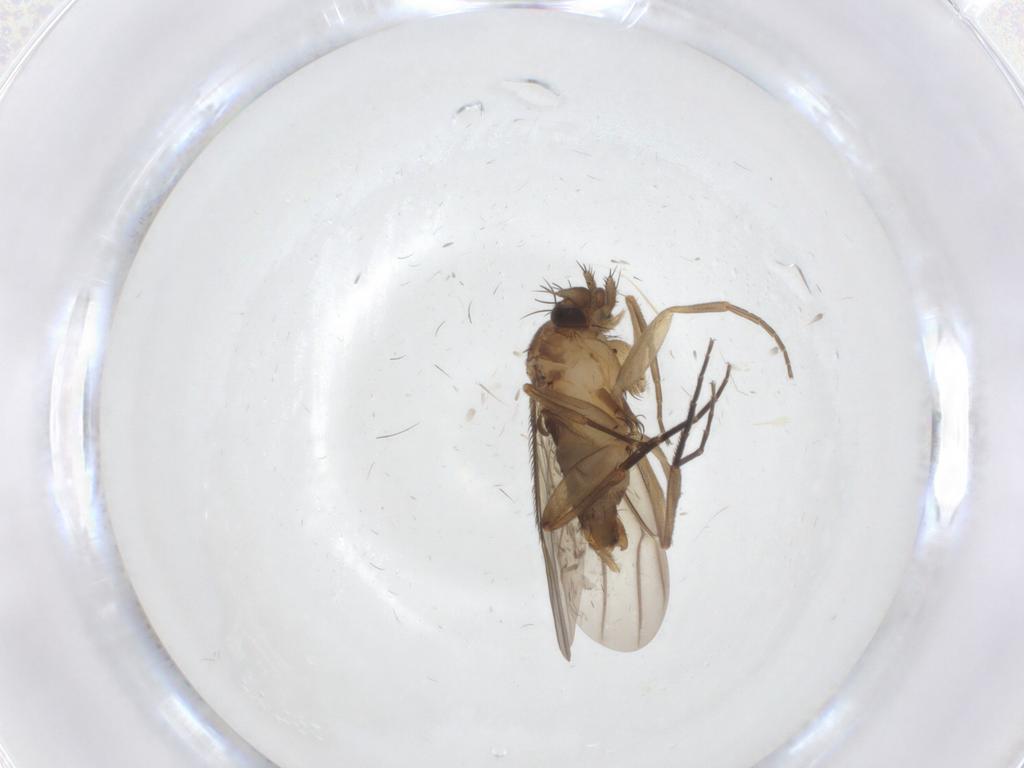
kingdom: Animalia
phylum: Arthropoda
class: Insecta
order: Diptera
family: Phoridae
